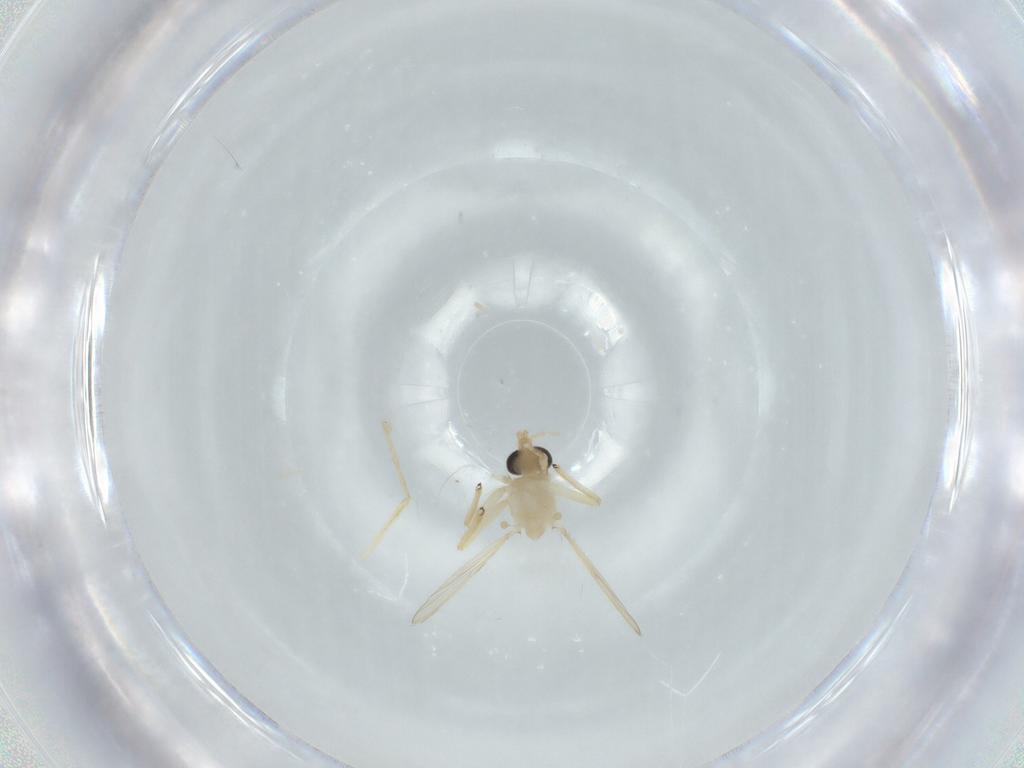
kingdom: Animalia
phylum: Arthropoda
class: Insecta
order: Diptera
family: Chironomidae
